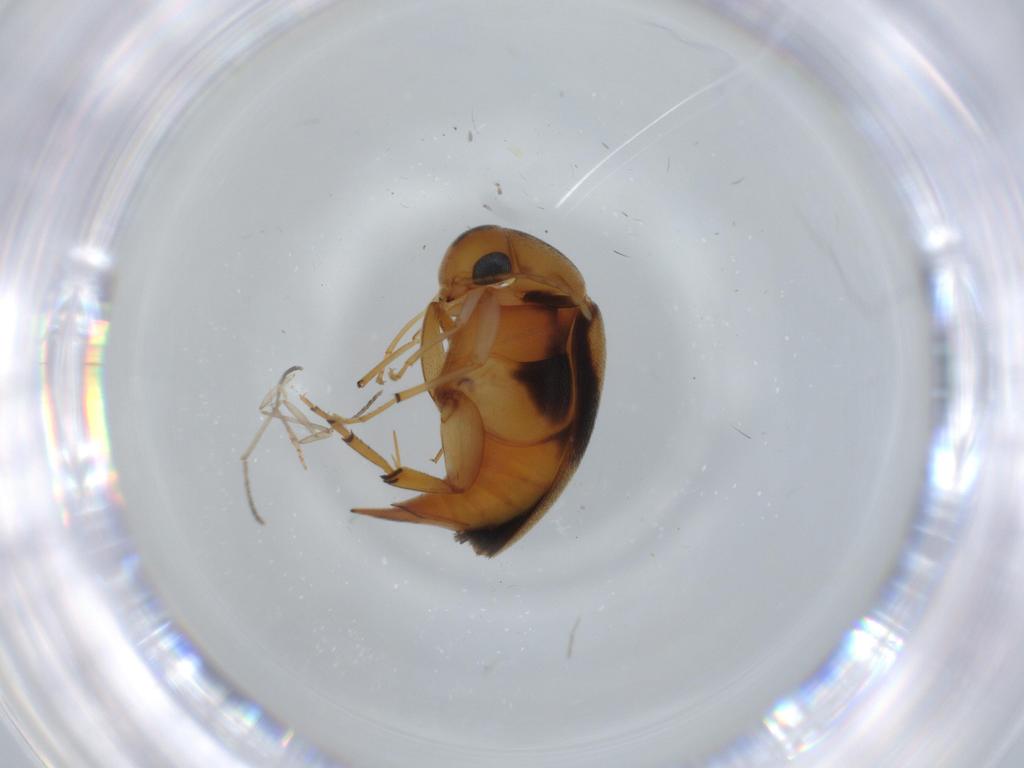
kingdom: Animalia
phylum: Arthropoda
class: Insecta
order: Coleoptera
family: Mordellidae
